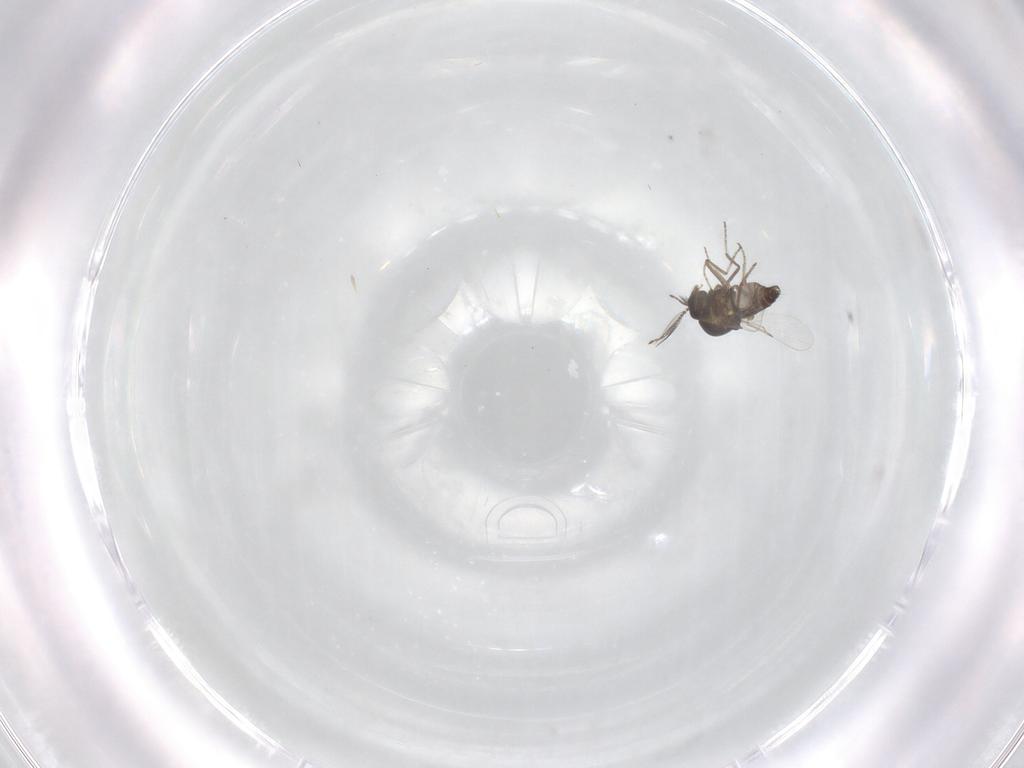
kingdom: Animalia
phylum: Arthropoda
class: Insecta
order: Diptera
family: Ceratopogonidae
